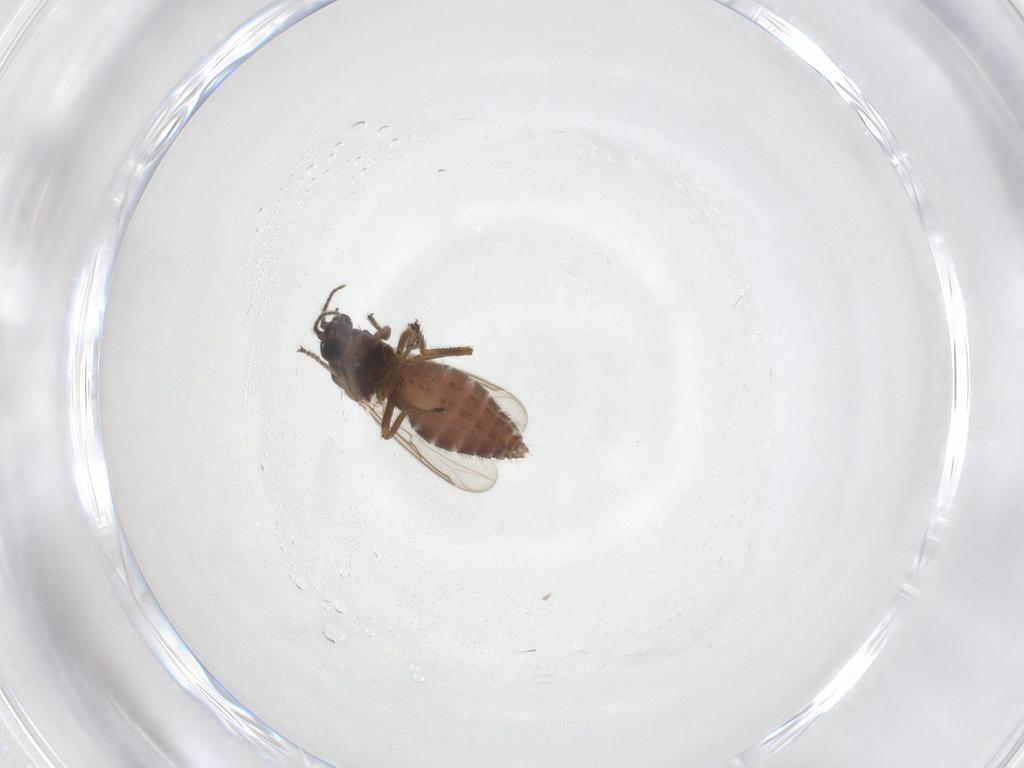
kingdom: Animalia
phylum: Arthropoda
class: Insecta
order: Diptera
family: Ceratopogonidae
